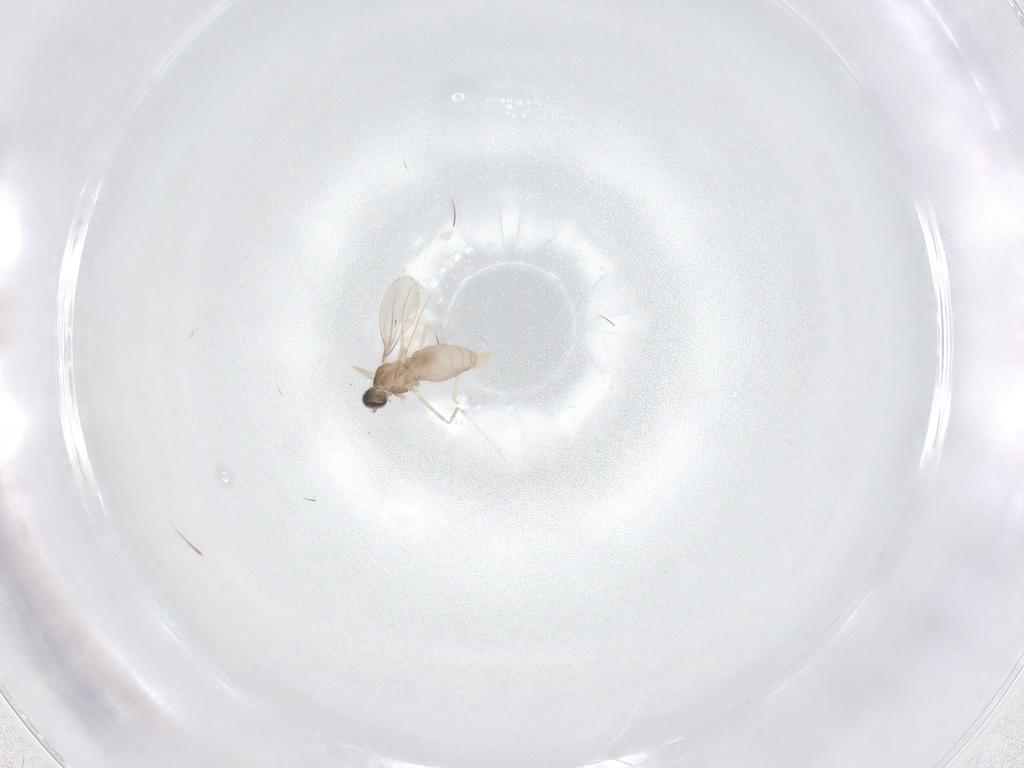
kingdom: Animalia
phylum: Arthropoda
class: Insecta
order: Diptera
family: Cecidomyiidae
